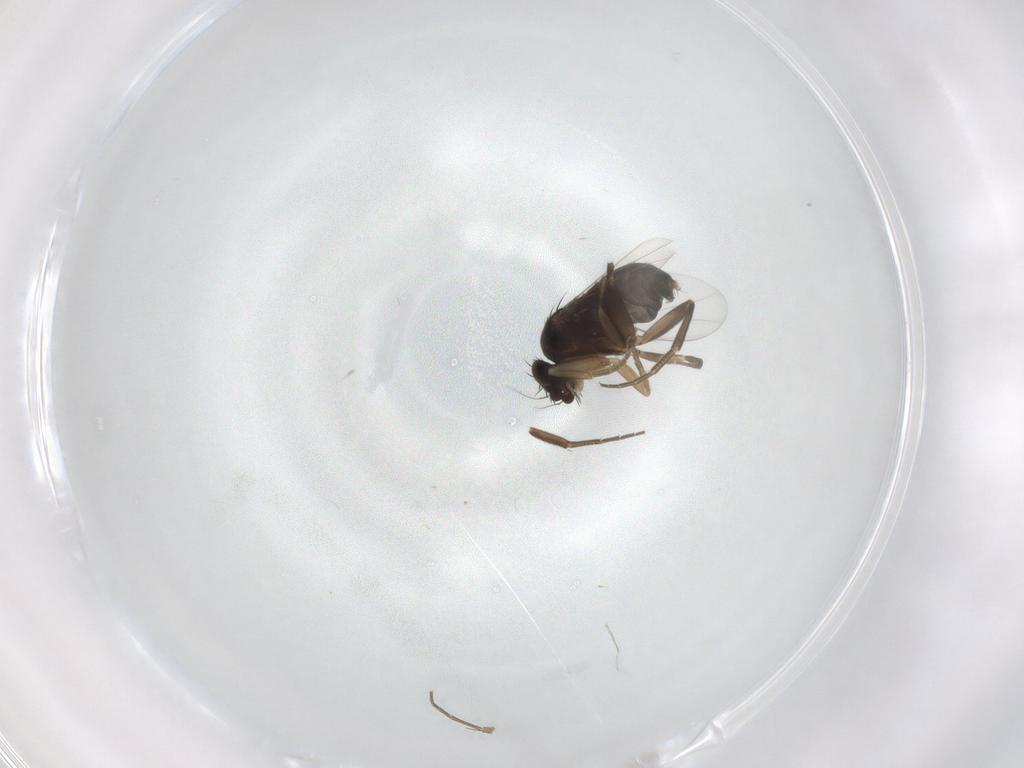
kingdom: Animalia
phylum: Arthropoda
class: Insecta
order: Diptera
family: Phoridae
